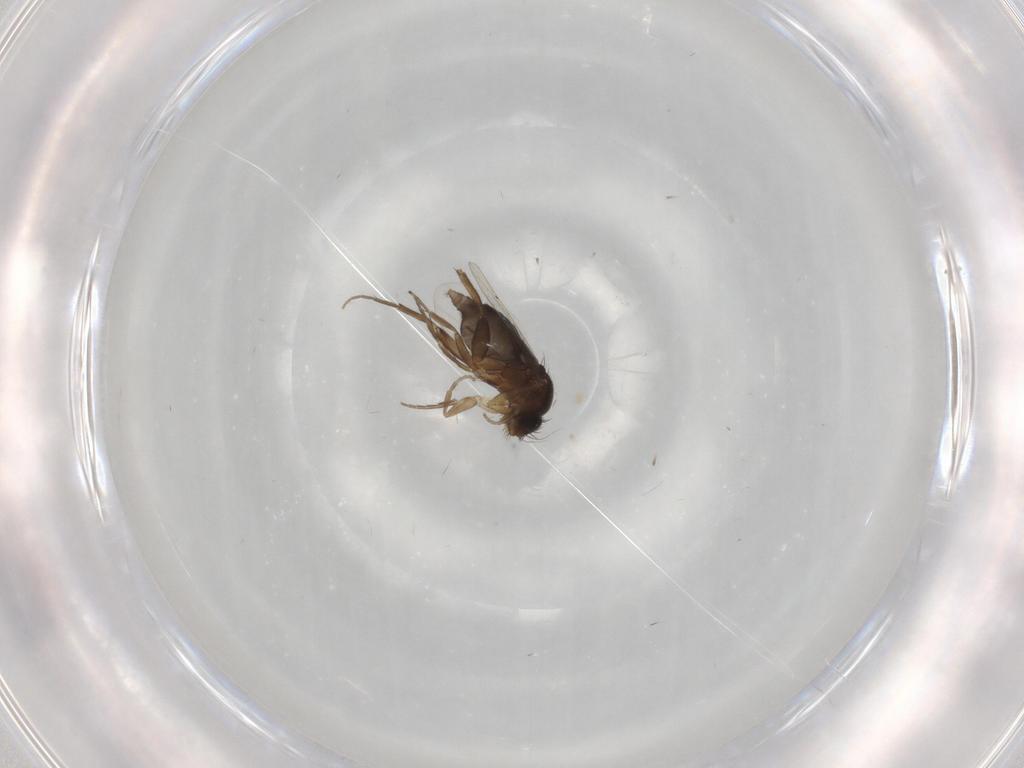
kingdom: Animalia
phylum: Arthropoda
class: Insecta
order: Diptera
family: Phoridae
